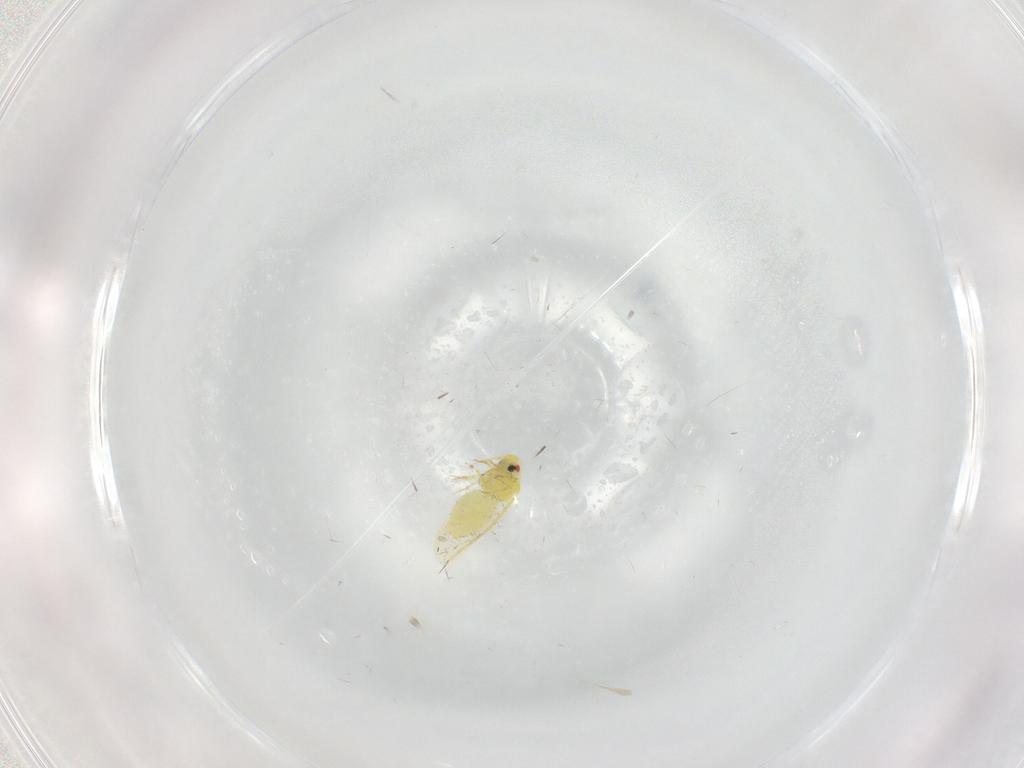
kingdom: Animalia
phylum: Arthropoda
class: Insecta
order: Hemiptera
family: Aleyrodidae
